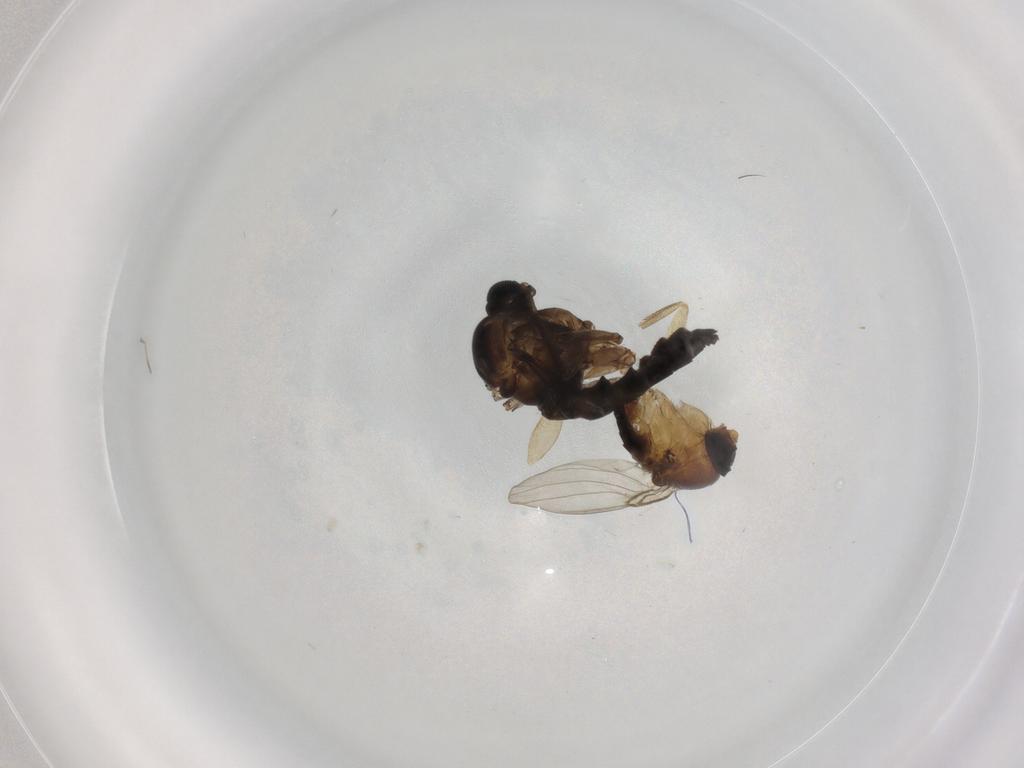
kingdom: Animalia
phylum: Arthropoda
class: Insecta
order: Diptera
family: Sciaridae
